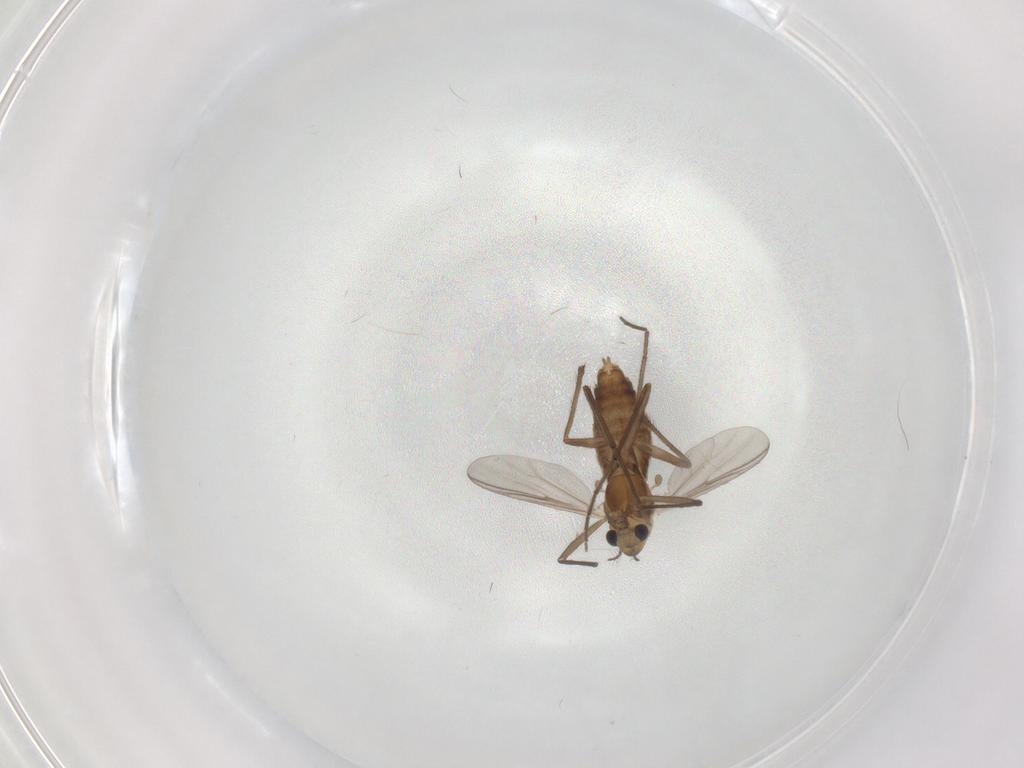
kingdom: Animalia
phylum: Arthropoda
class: Insecta
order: Diptera
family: Chironomidae
